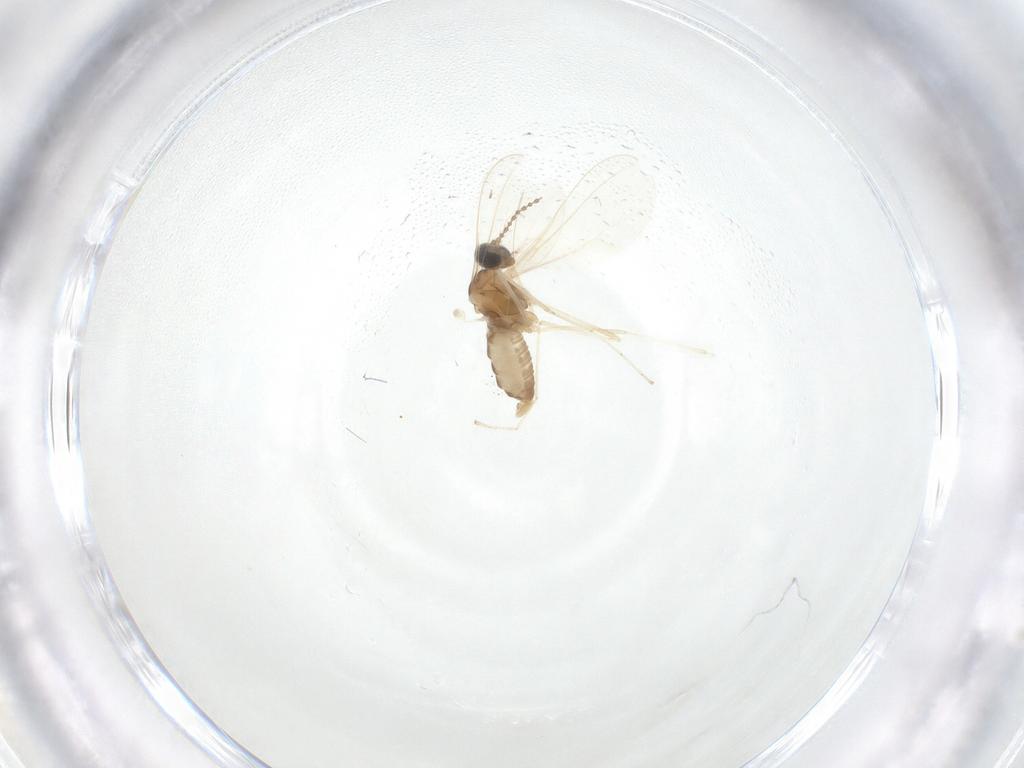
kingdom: Animalia
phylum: Arthropoda
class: Insecta
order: Diptera
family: Cecidomyiidae
